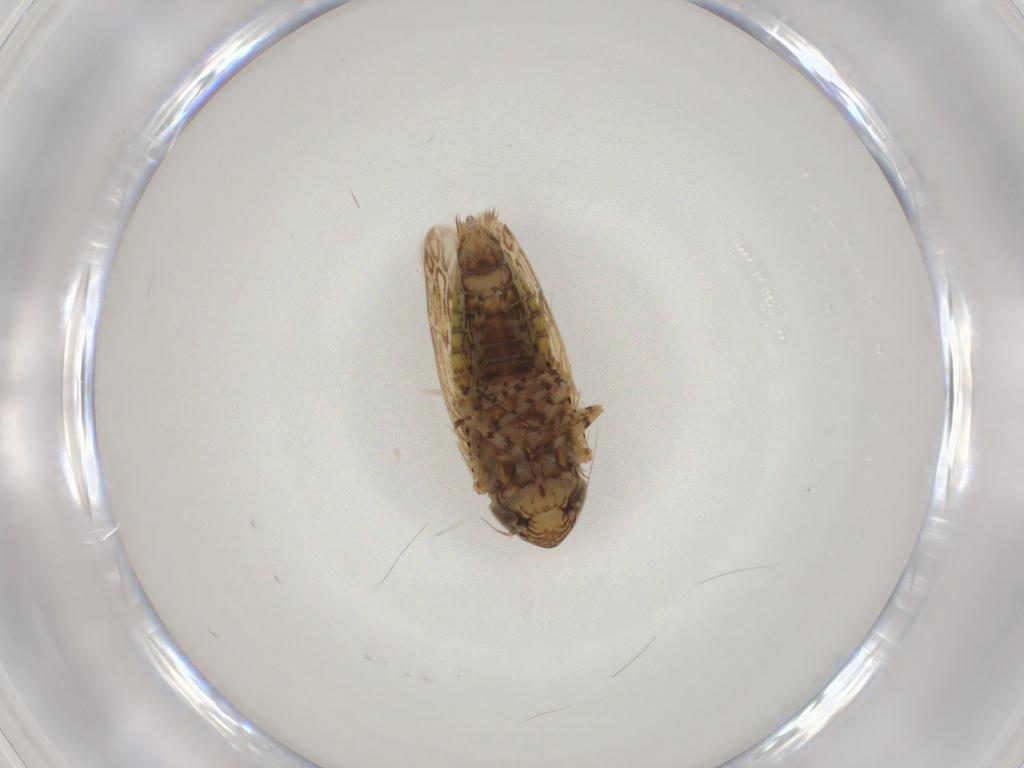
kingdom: Animalia
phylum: Arthropoda
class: Insecta
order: Hemiptera
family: Cicadellidae
